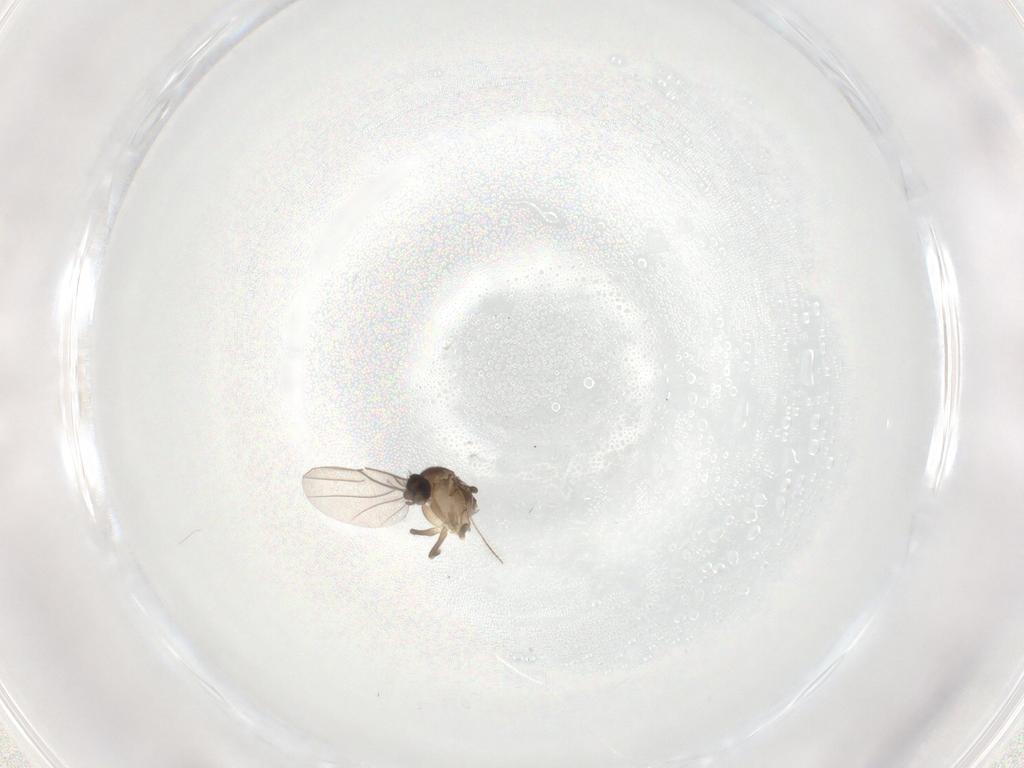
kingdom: Animalia
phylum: Arthropoda
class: Insecta
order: Diptera
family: Ceratopogonidae
